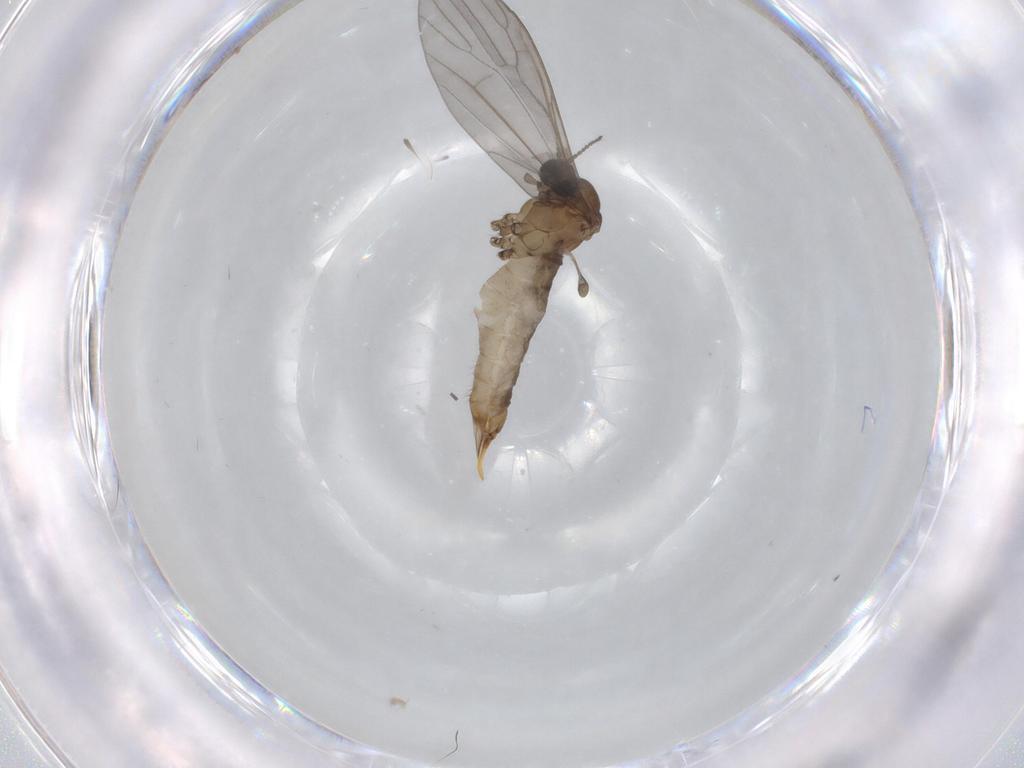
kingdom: Animalia
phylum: Arthropoda
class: Insecta
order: Diptera
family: Limoniidae
